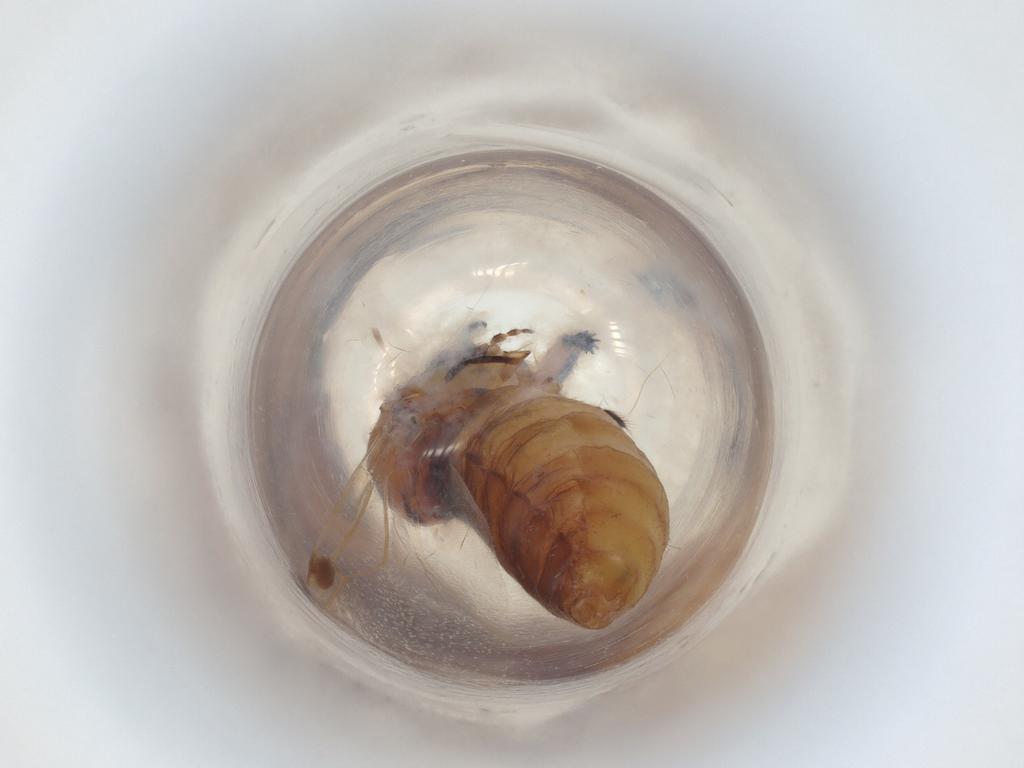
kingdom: Animalia
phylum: Arthropoda
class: Insecta
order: Diptera
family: Bibionidae
